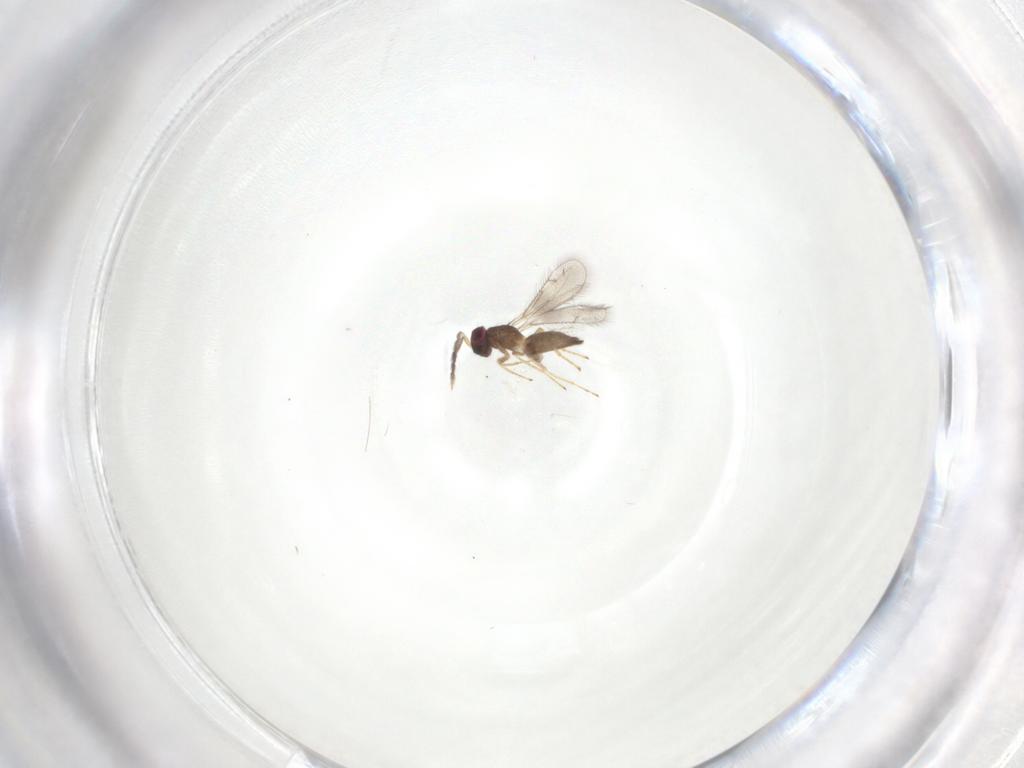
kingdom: Animalia
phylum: Arthropoda
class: Insecta
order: Hymenoptera
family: Eulophidae
